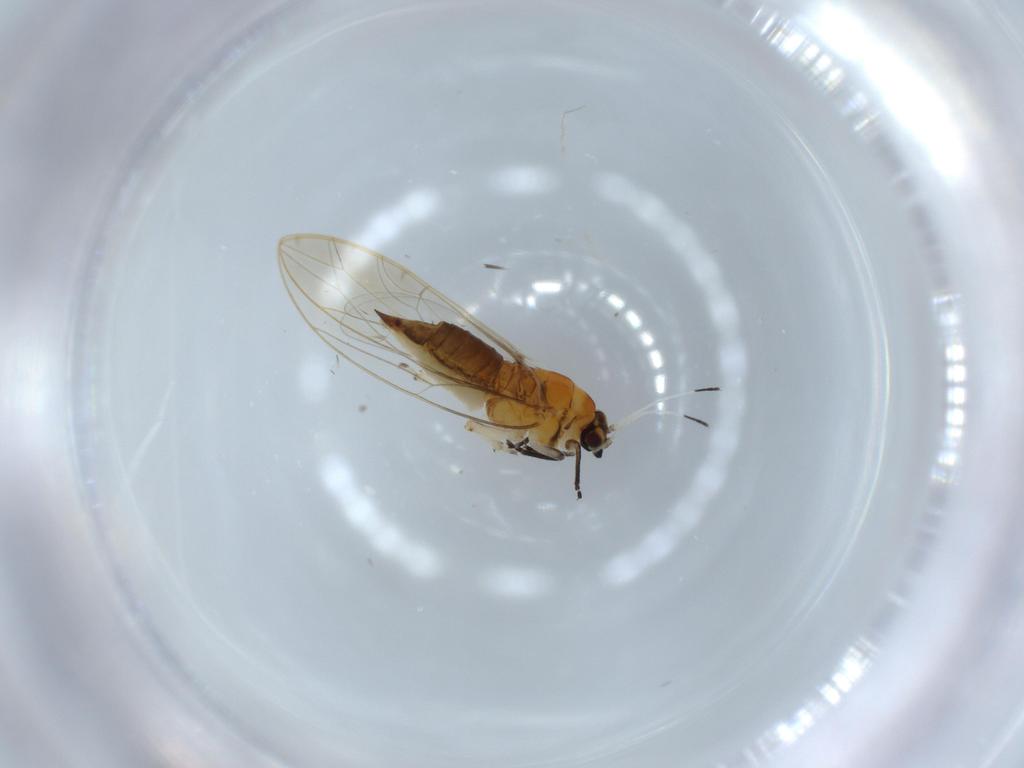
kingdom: Animalia
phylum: Arthropoda
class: Insecta
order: Hemiptera
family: Triozidae
